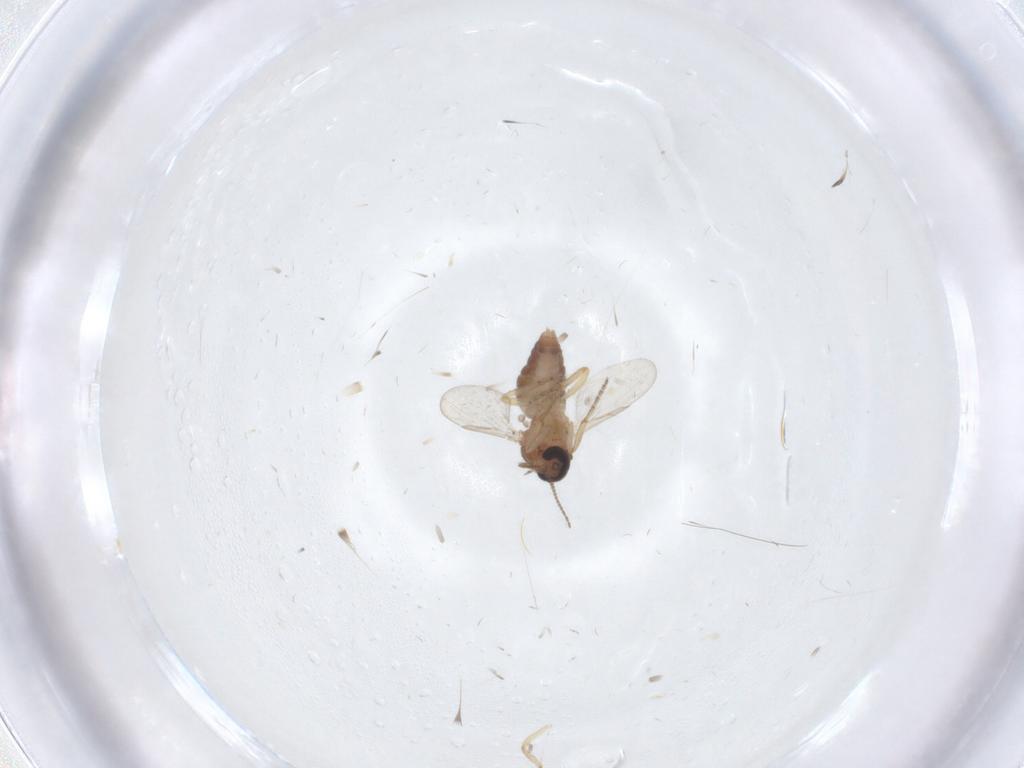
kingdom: Animalia
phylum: Arthropoda
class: Insecta
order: Diptera
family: Ceratopogonidae
